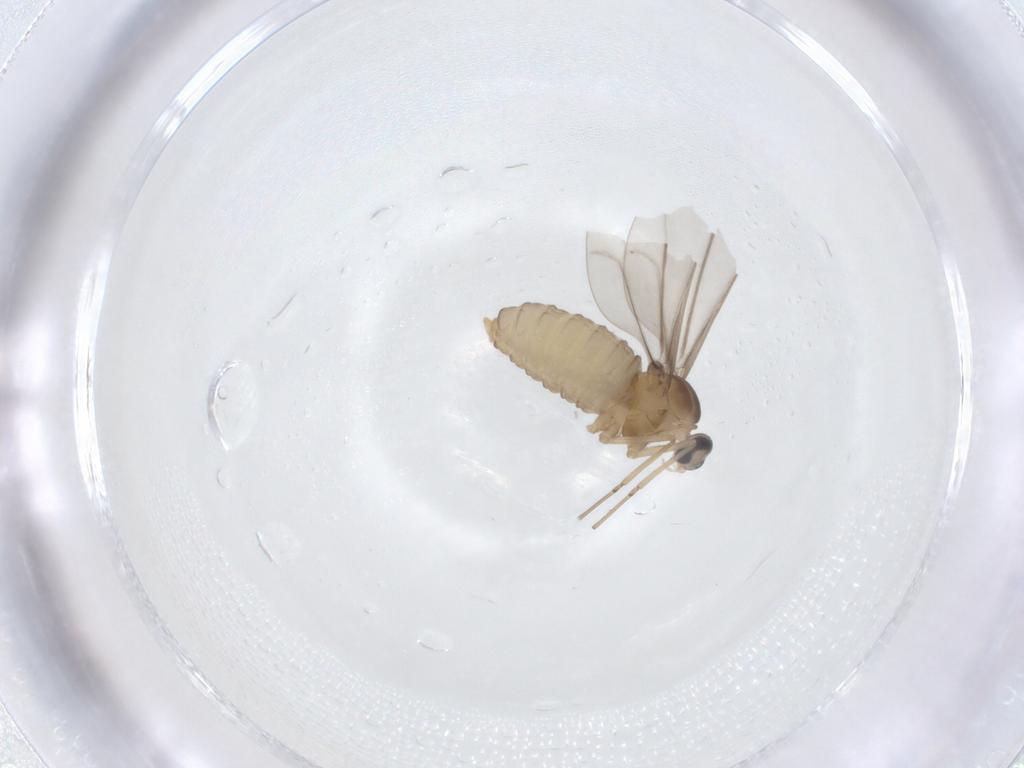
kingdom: Animalia
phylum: Arthropoda
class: Insecta
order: Diptera
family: Cecidomyiidae
